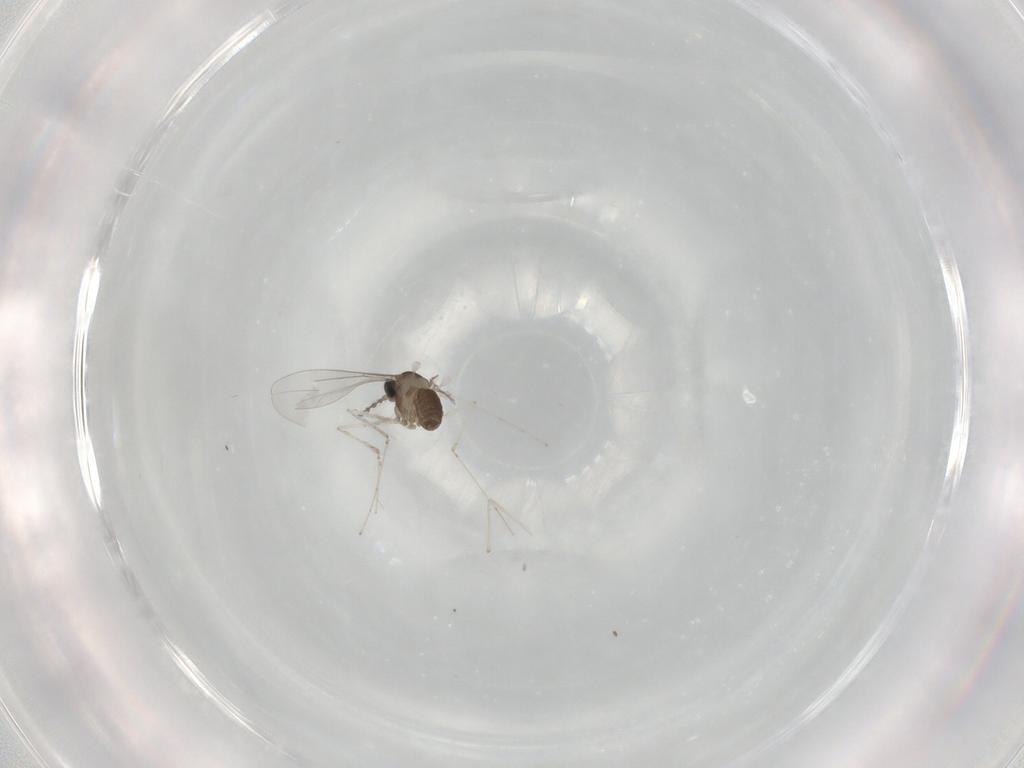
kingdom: Animalia
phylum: Arthropoda
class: Insecta
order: Diptera
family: Cecidomyiidae
